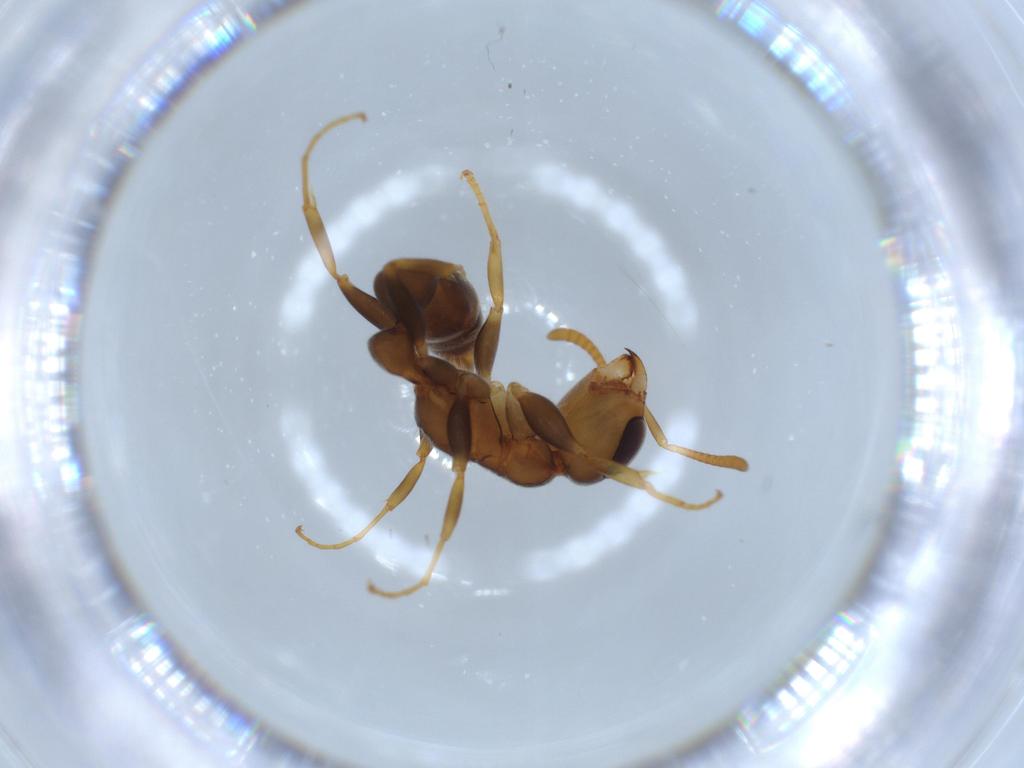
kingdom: Animalia
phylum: Arthropoda
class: Insecta
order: Hymenoptera
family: Formicidae
